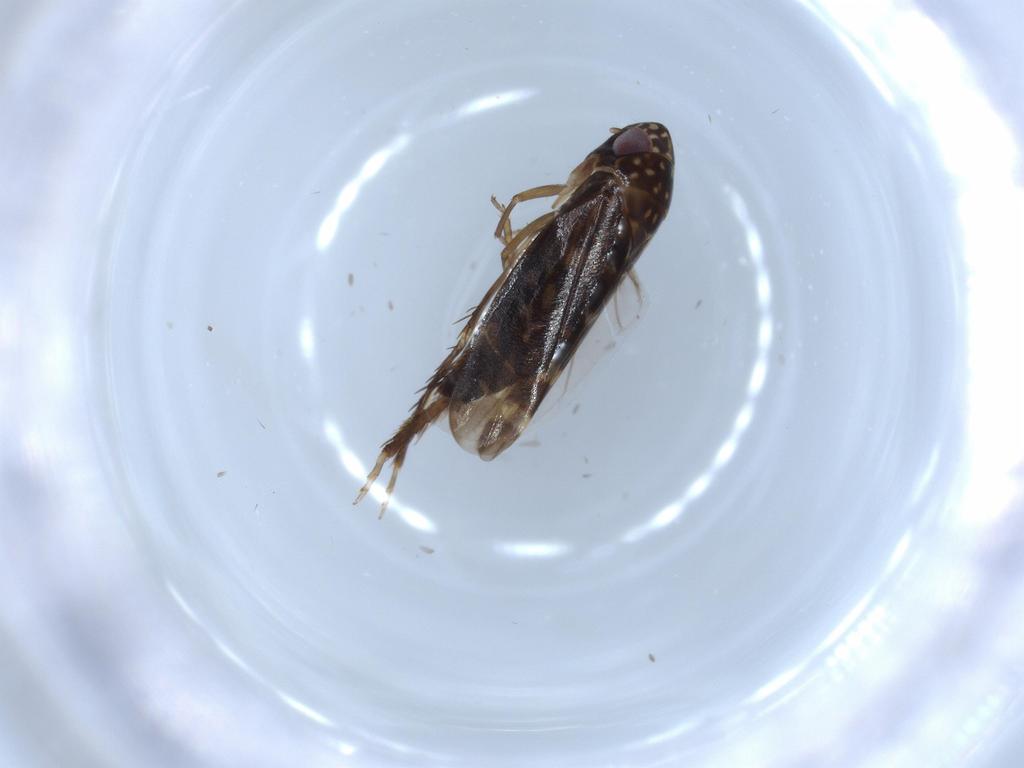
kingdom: Animalia
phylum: Arthropoda
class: Insecta
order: Hemiptera
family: Cicadellidae
